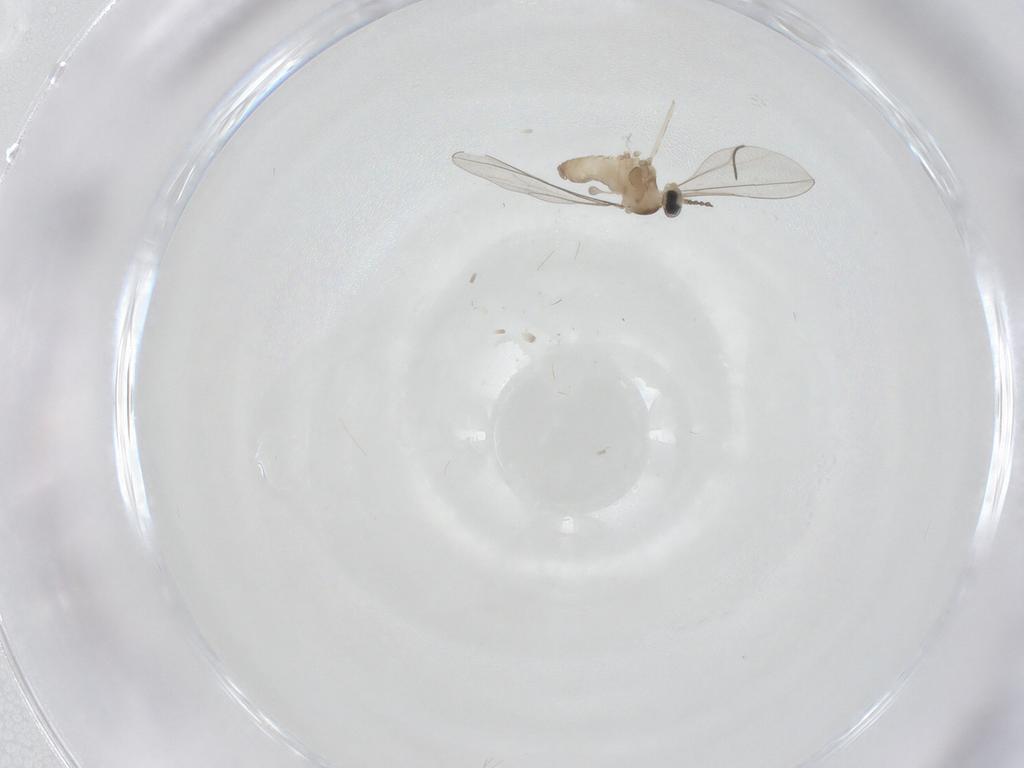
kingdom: Animalia
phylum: Arthropoda
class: Insecta
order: Diptera
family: Cecidomyiidae
